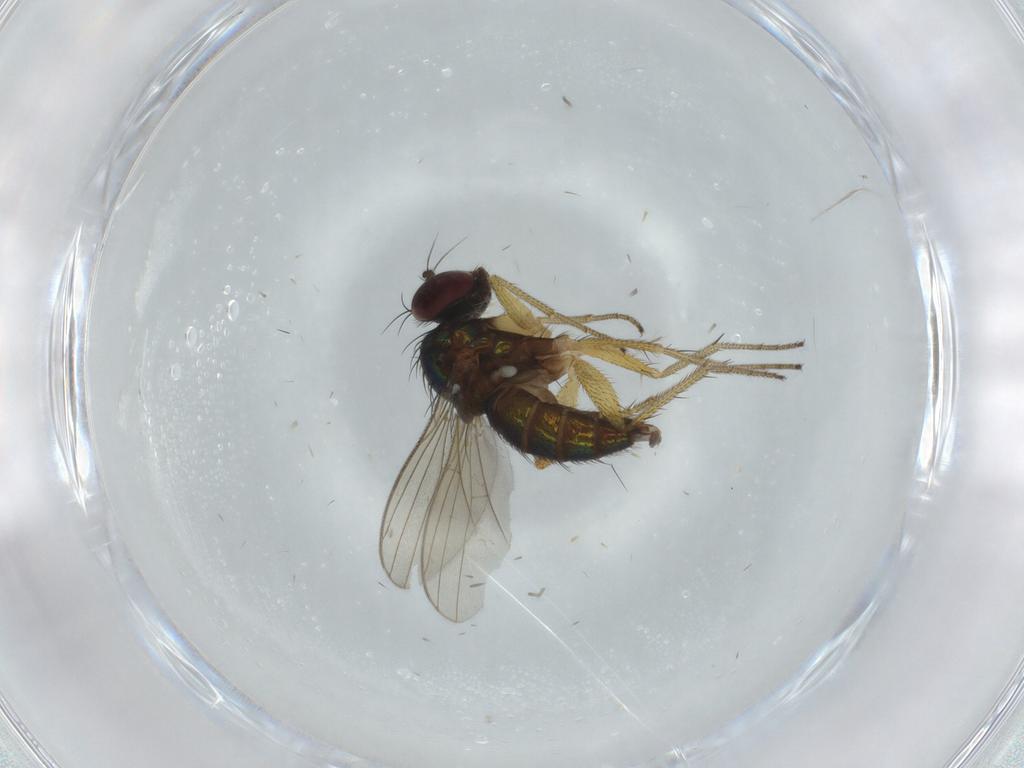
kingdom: Animalia
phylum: Arthropoda
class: Insecta
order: Diptera
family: Dolichopodidae
